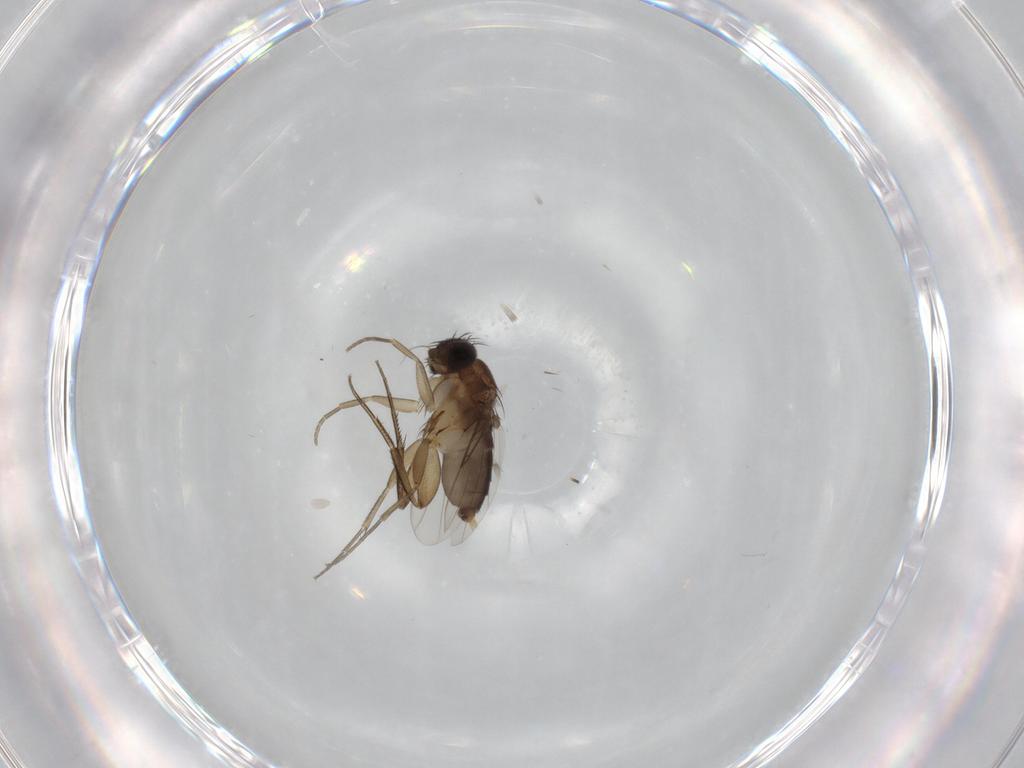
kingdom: Animalia
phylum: Arthropoda
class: Insecta
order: Diptera
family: Phoridae
